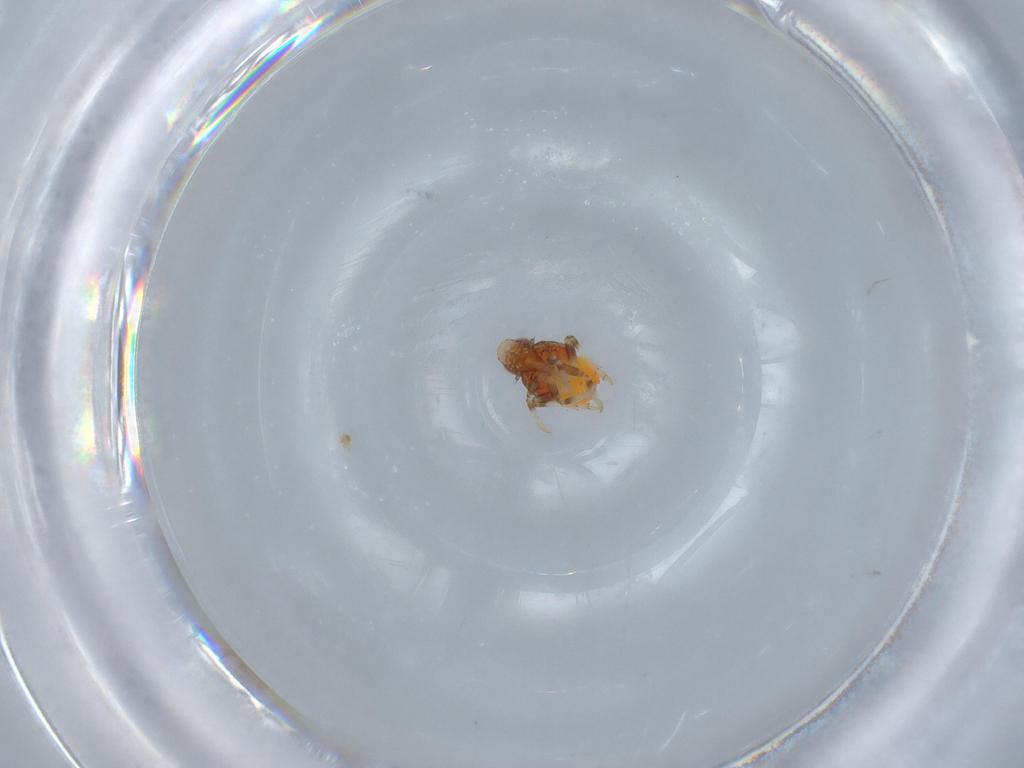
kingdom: Animalia
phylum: Arthropoda
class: Insecta
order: Hemiptera
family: Issidae
